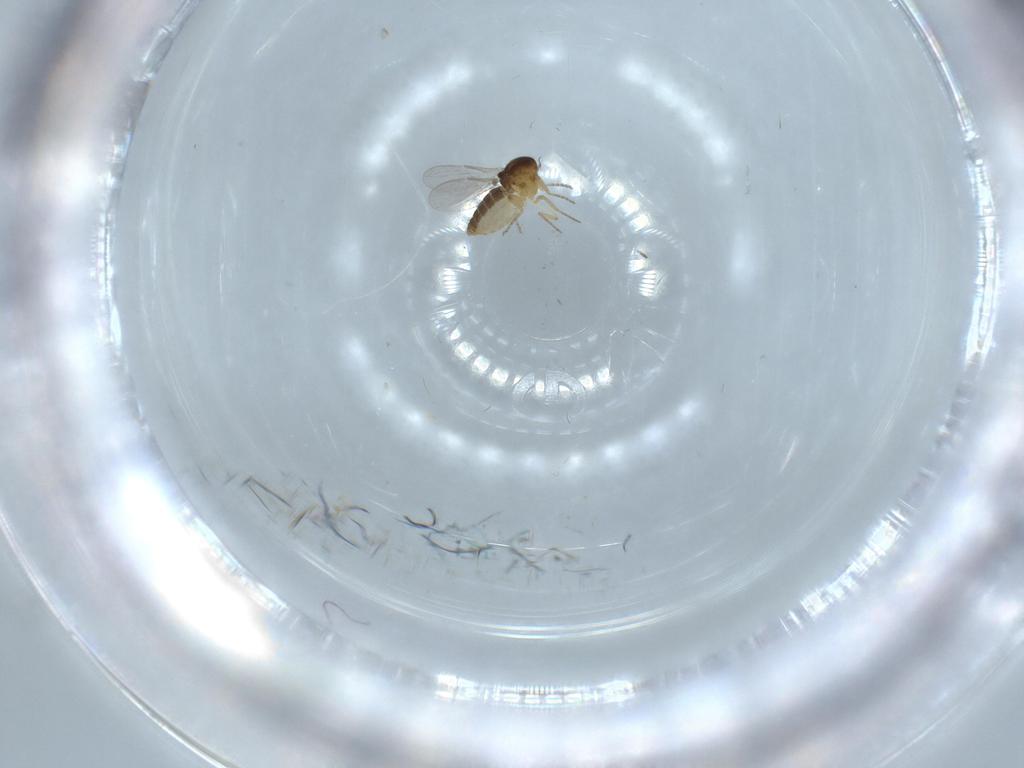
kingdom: Animalia
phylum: Arthropoda
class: Insecta
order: Diptera
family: Ceratopogonidae
